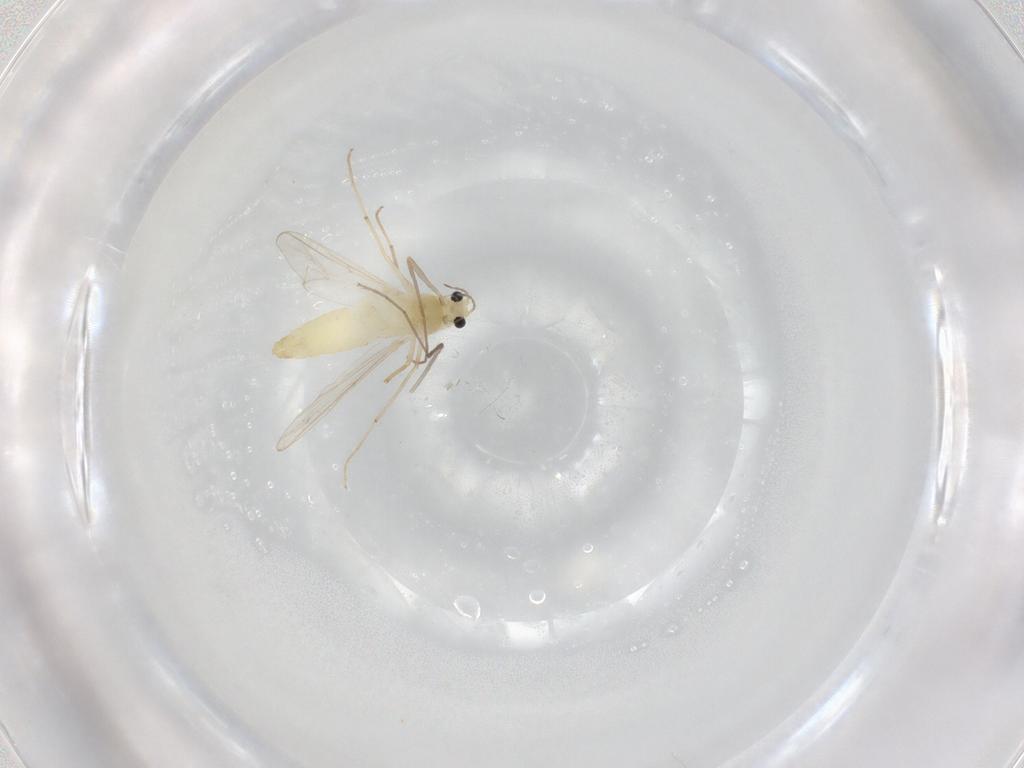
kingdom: Animalia
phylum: Arthropoda
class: Insecta
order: Diptera
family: Chironomidae
